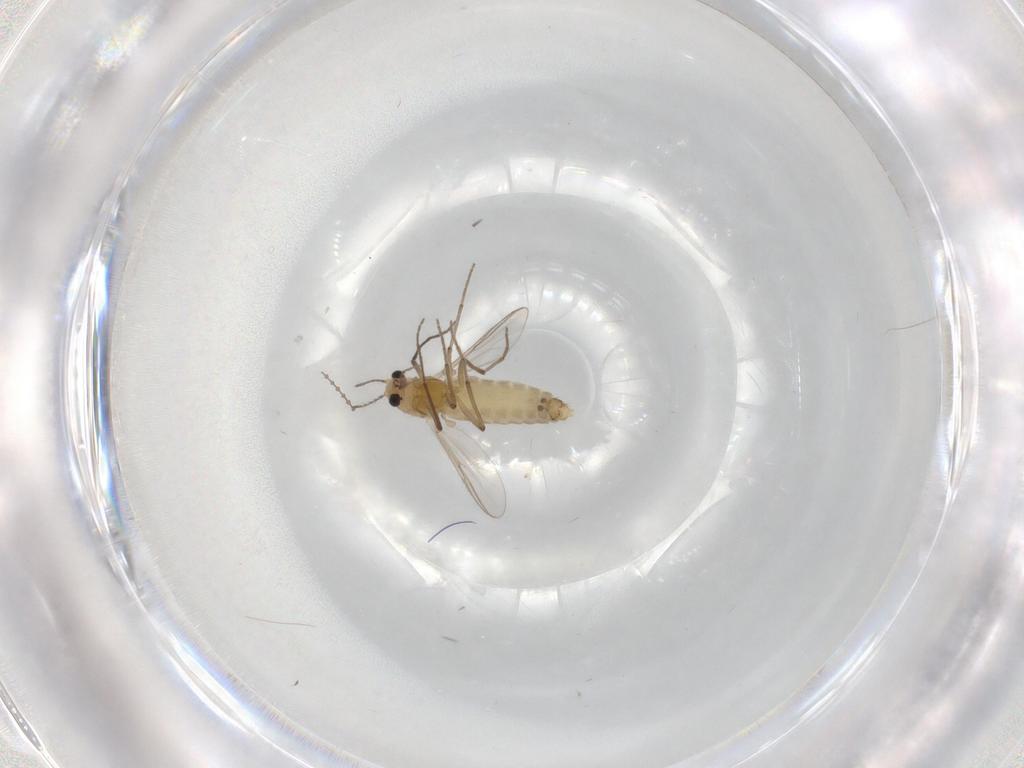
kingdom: Animalia
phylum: Arthropoda
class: Insecta
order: Diptera
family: Chironomidae
